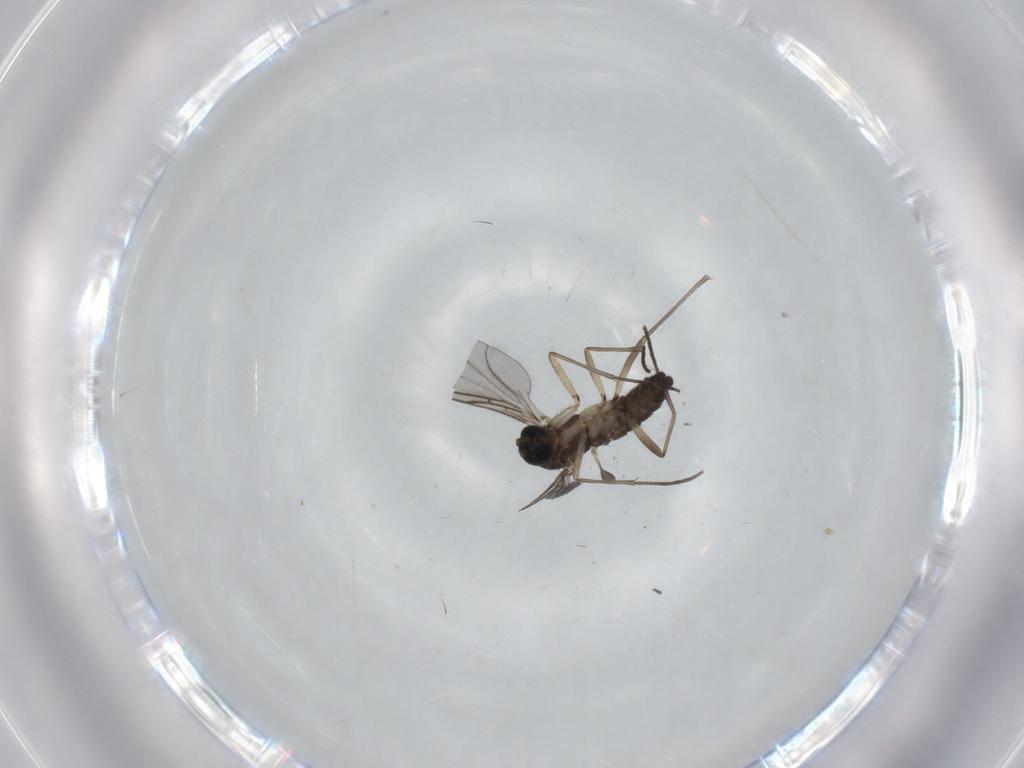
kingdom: Animalia
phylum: Arthropoda
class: Insecta
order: Diptera
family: Sciaridae
